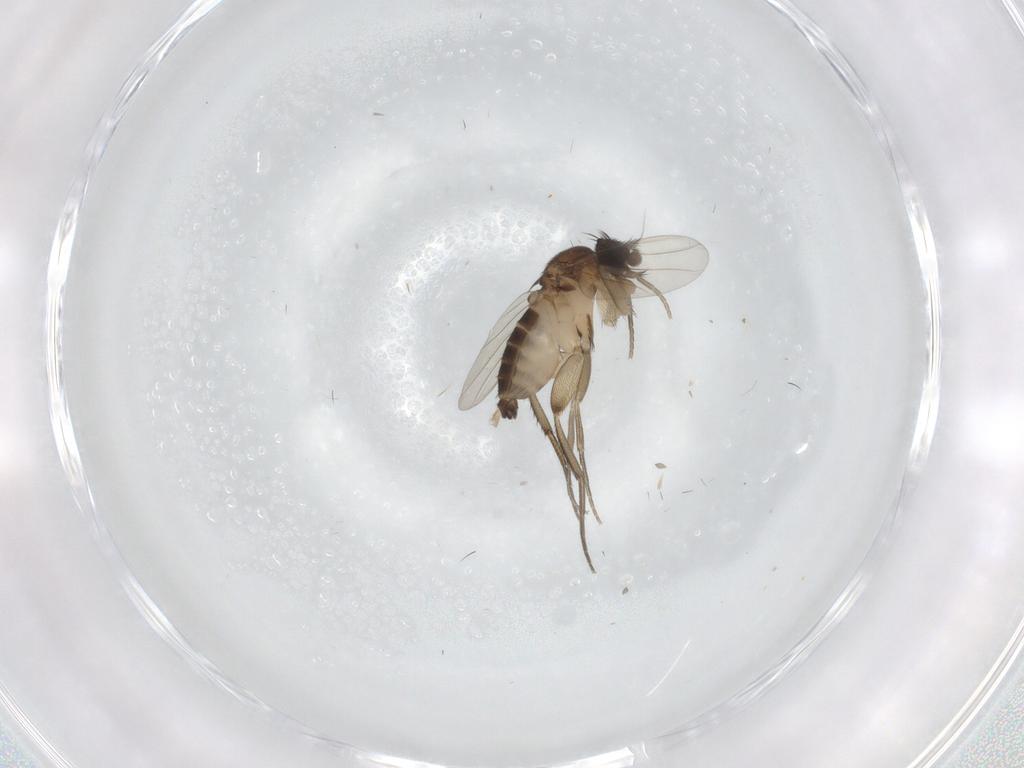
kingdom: Animalia
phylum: Arthropoda
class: Insecta
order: Diptera
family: Phoridae
